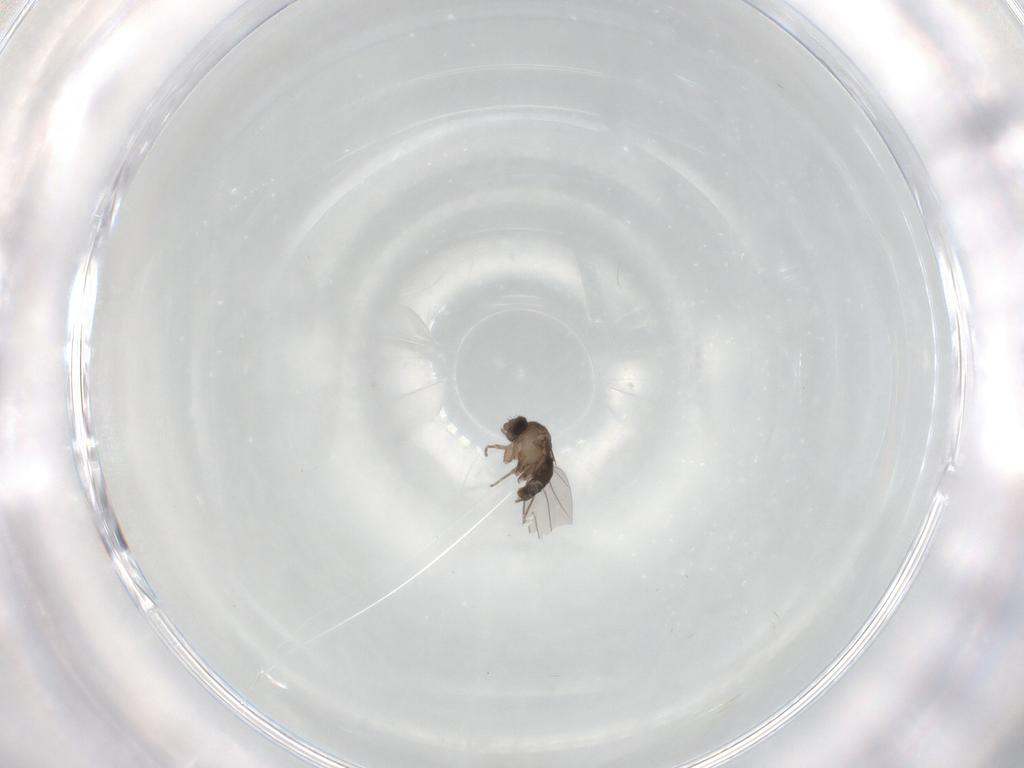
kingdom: Animalia
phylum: Arthropoda
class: Insecta
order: Diptera
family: Phoridae
